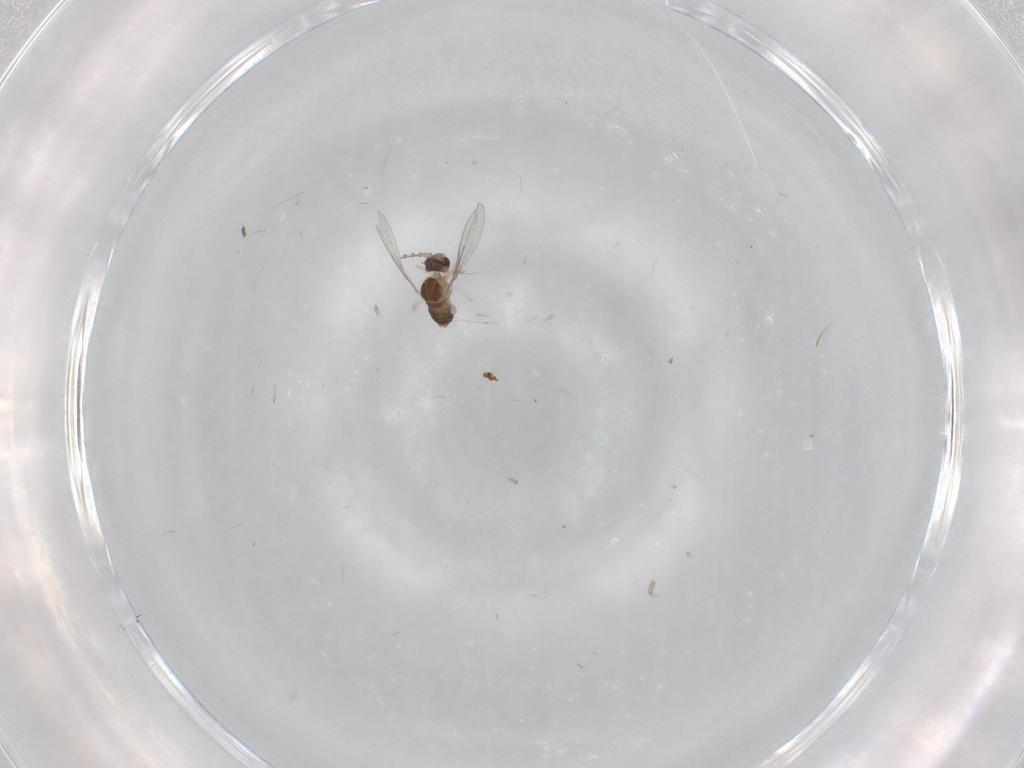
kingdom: Animalia
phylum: Arthropoda
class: Insecta
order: Diptera
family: Cecidomyiidae
